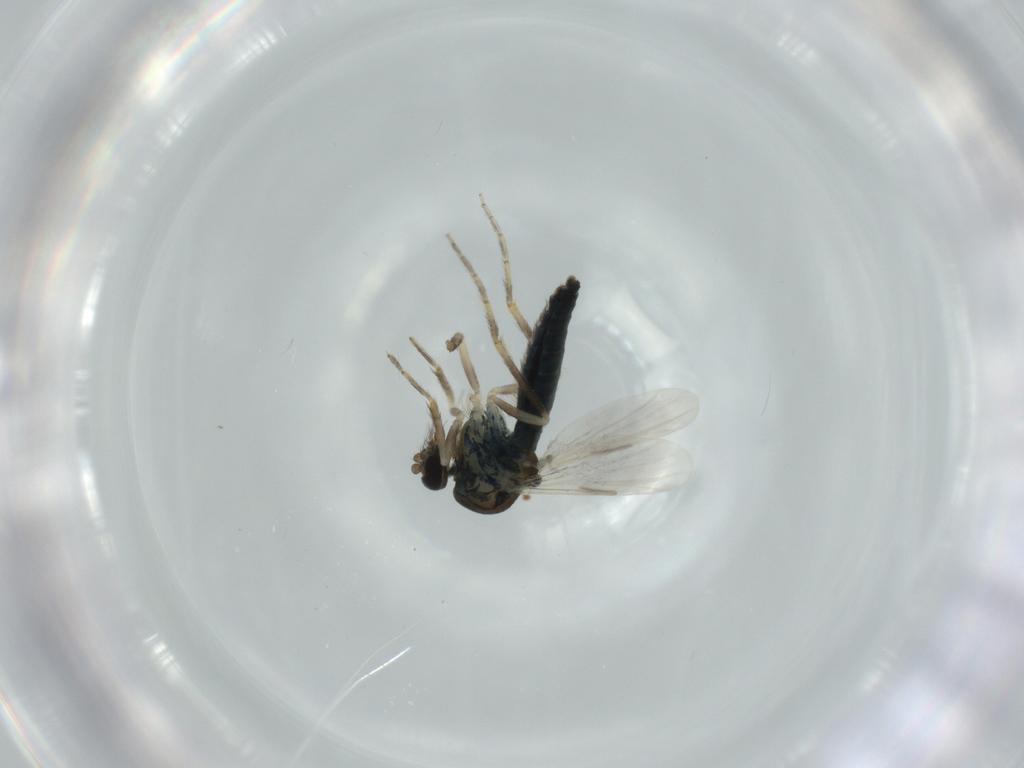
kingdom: Animalia
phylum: Arthropoda
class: Insecta
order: Diptera
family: Ceratopogonidae
